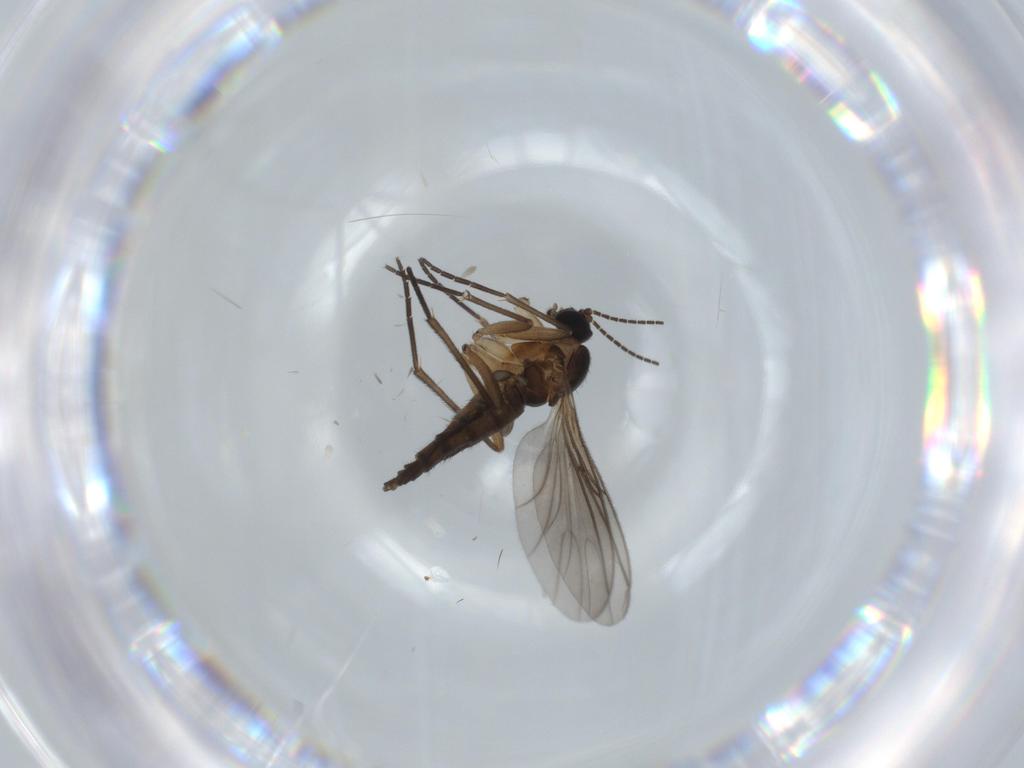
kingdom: Animalia
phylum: Arthropoda
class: Insecta
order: Diptera
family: Sciaridae
